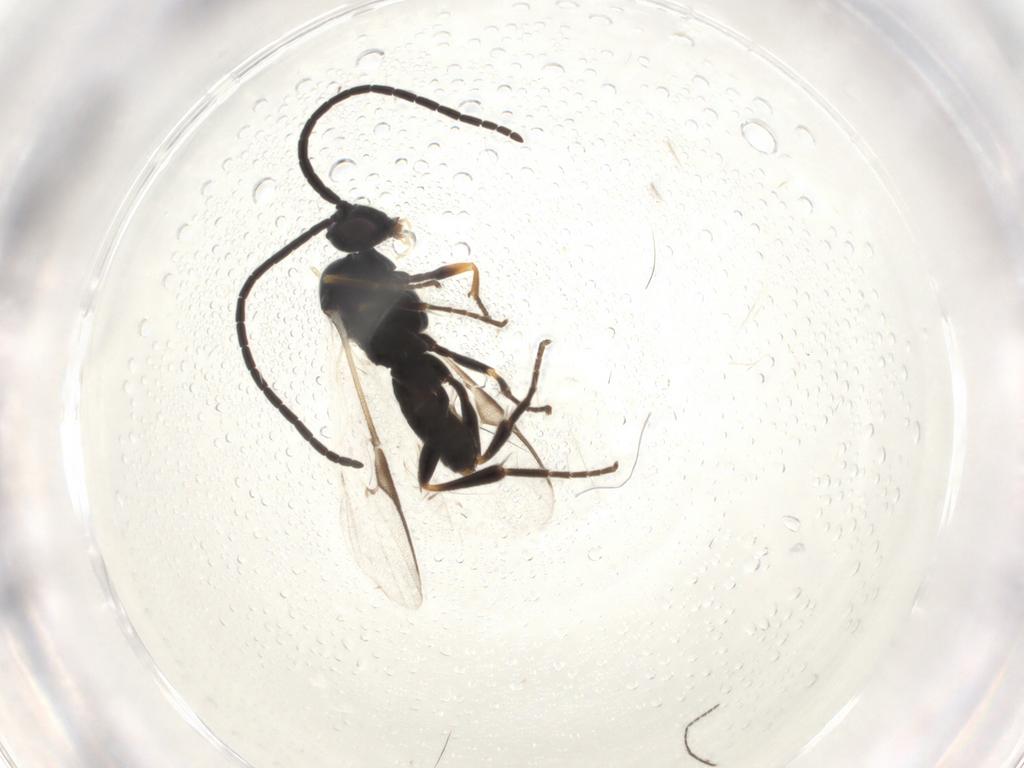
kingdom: Animalia
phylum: Arthropoda
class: Insecta
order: Hymenoptera
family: Braconidae
